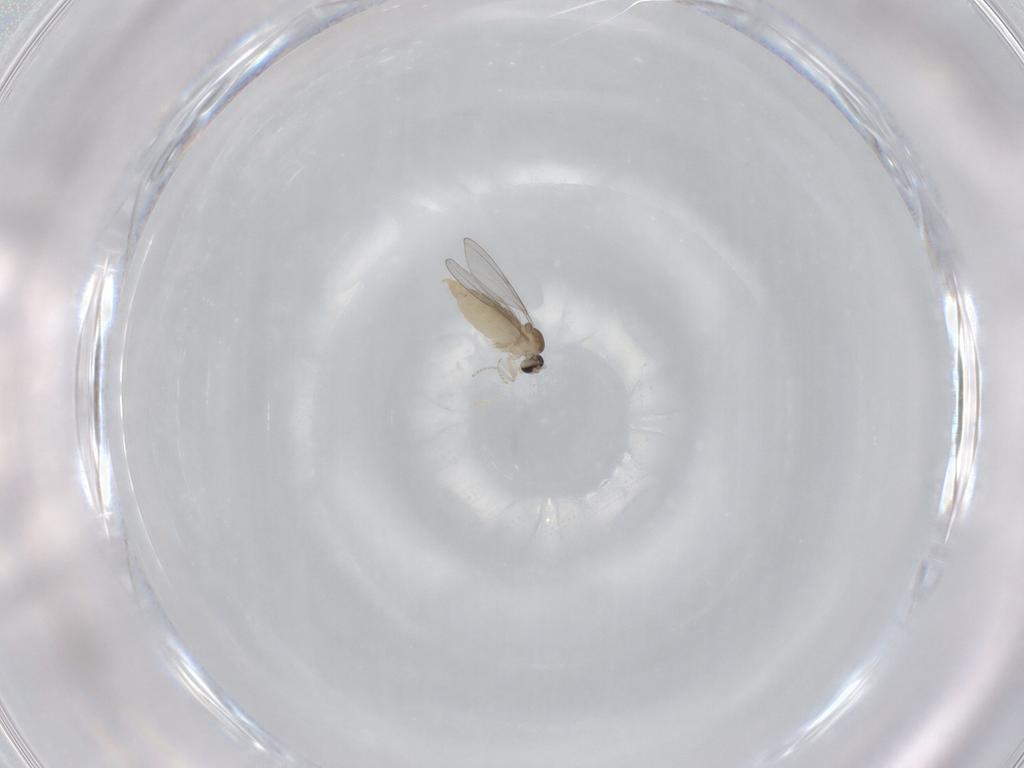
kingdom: Animalia
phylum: Arthropoda
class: Insecta
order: Diptera
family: Cecidomyiidae
